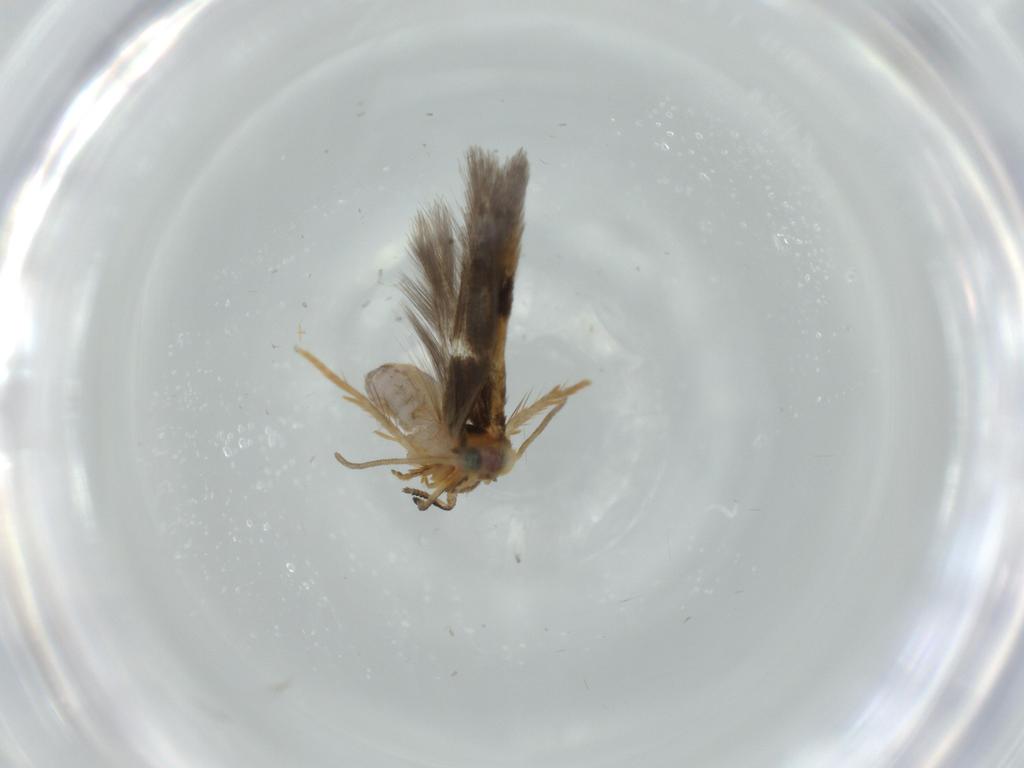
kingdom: Animalia
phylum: Arthropoda
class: Insecta
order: Lepidoptera
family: Nepticulidae
